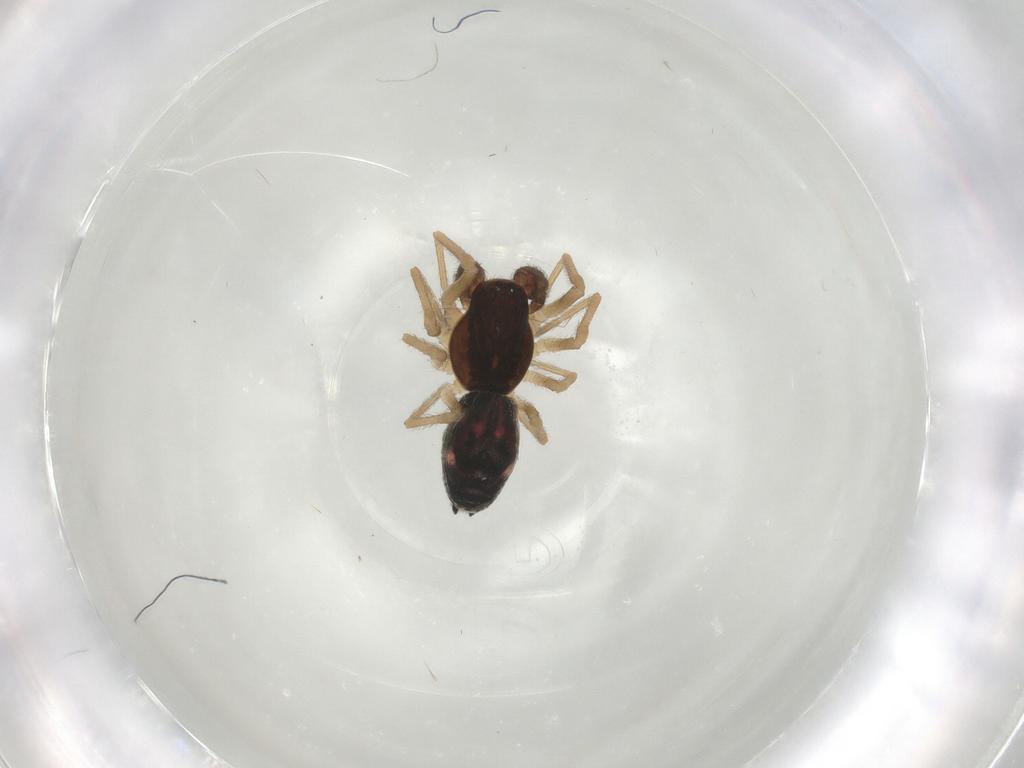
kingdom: Animalia
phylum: Arthropoda
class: Arachnida
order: Araneae
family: Dictynidae
